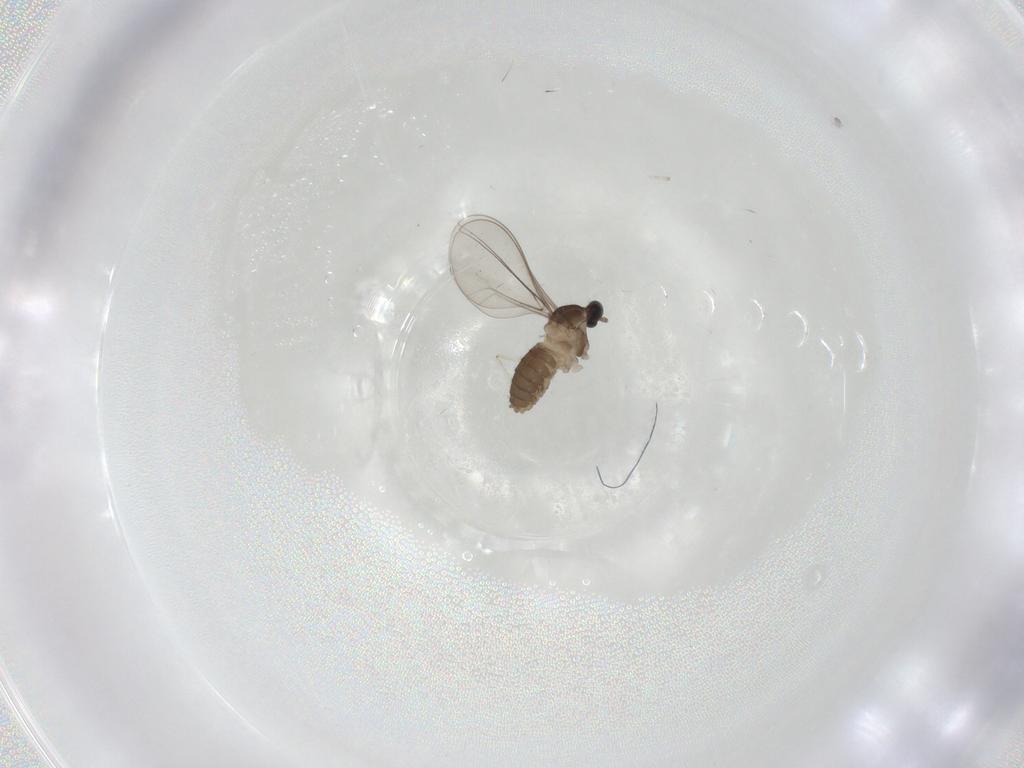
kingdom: Animalia
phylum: Arthropoda
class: Insecta
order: Diptera
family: Cecidomyiidae
